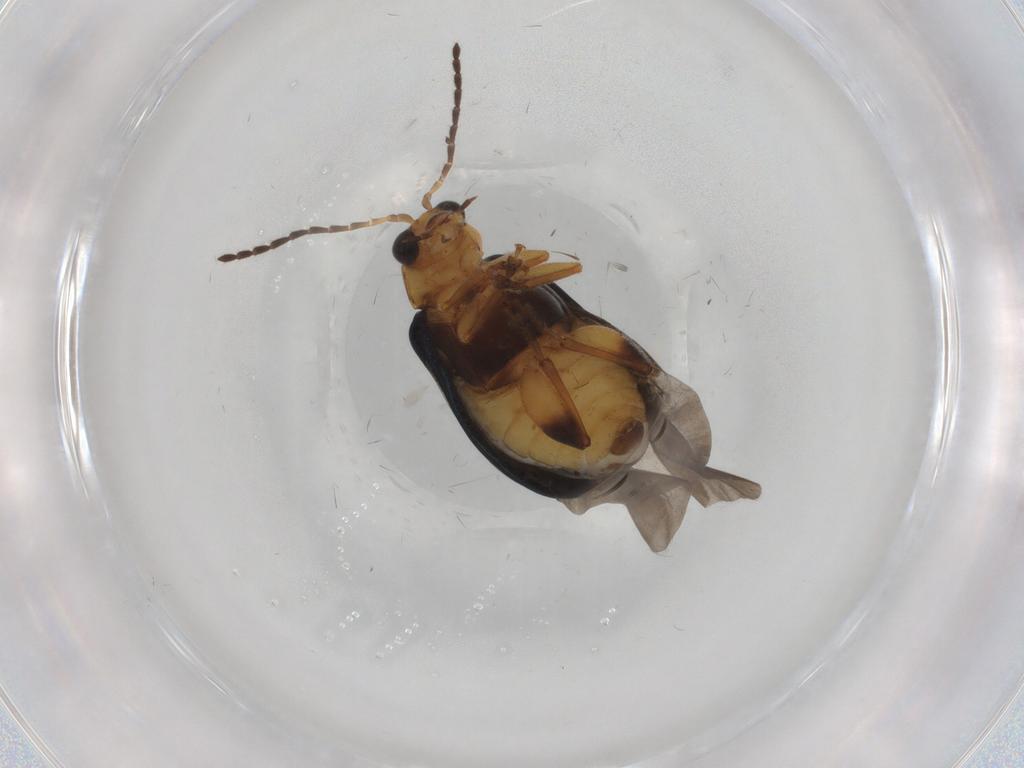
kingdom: Animalia
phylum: Arthropoda
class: Insecta
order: Coleoptera
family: Chrysomelidae
